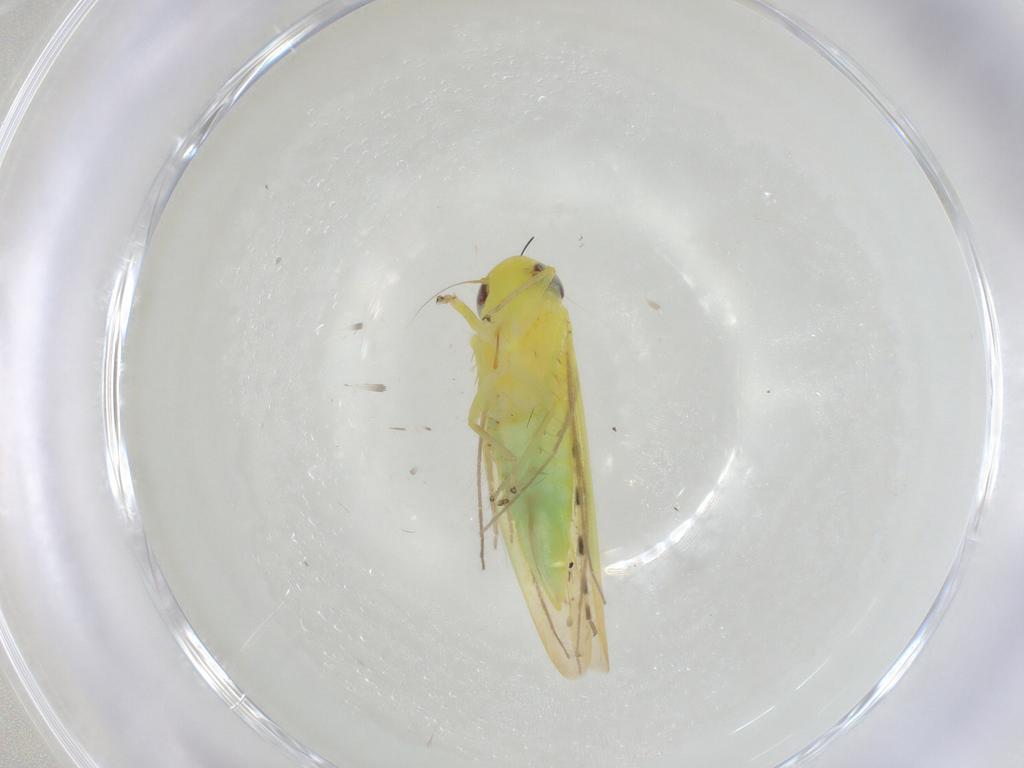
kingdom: Animalia
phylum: Arthropoda
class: Insecta
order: Hemiptera
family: Cicadellidae
